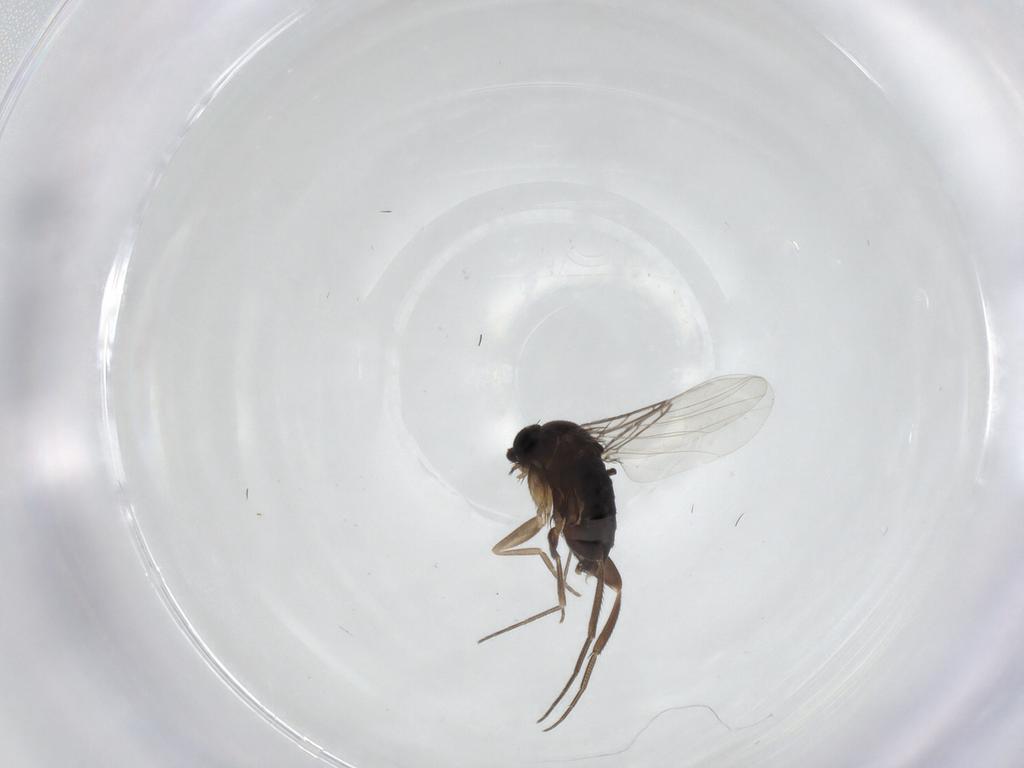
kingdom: Animalia
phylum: Arthropoda
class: Insecta
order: Diptera
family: Phoridae
